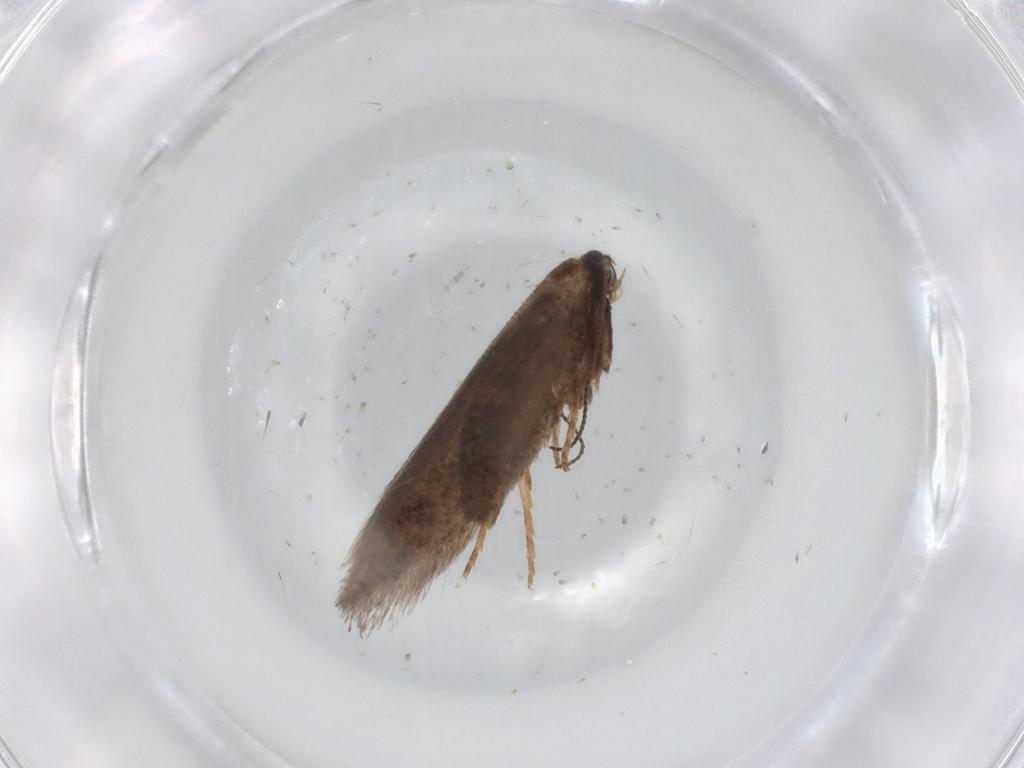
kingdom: Animalia
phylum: Arthropoda
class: Insecta
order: Lepidoptera
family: Nepticulidae
